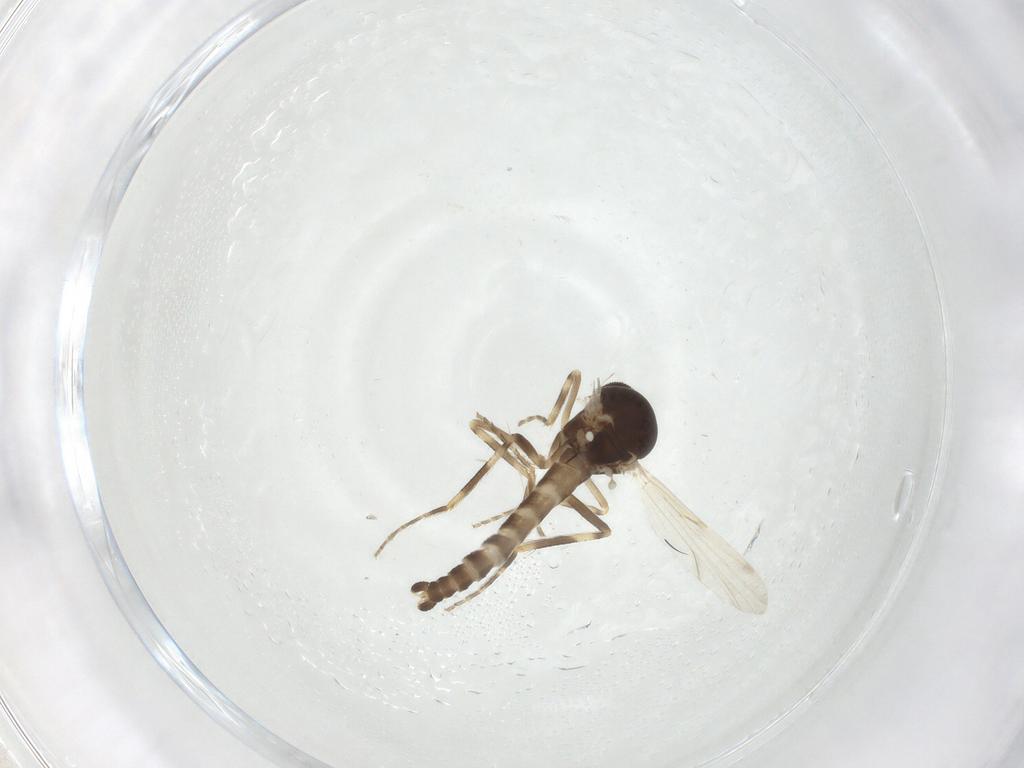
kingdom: Animalia
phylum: Arthropoda
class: Insecta
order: Diptera
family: Ceratopogonidae
